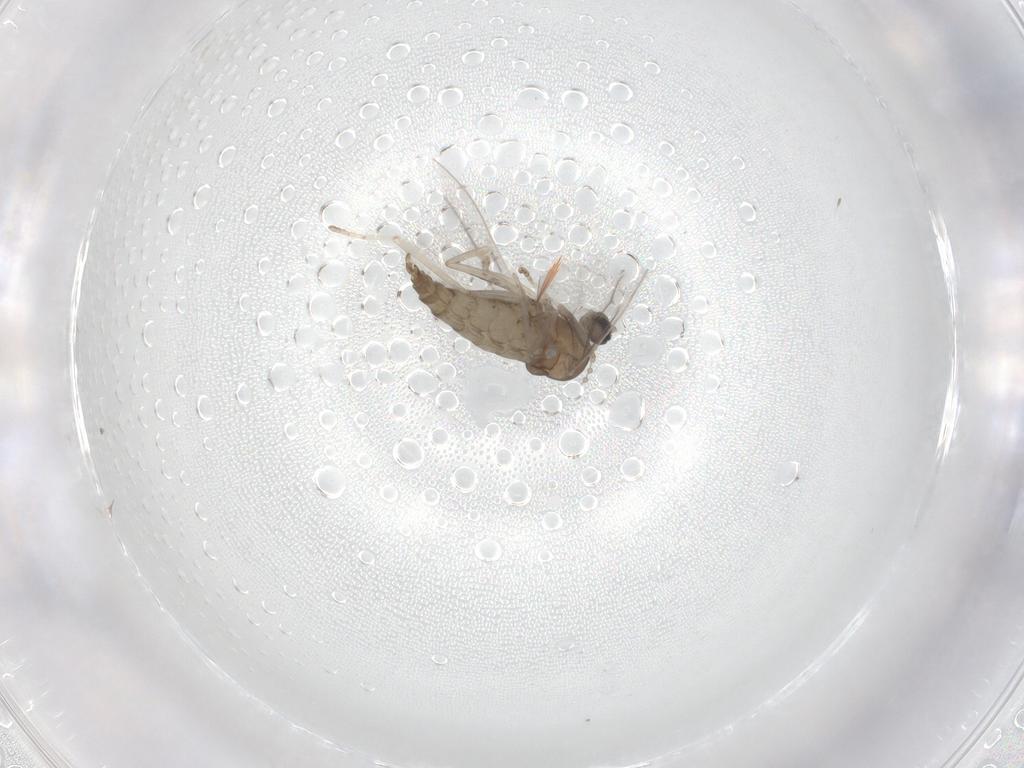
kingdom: Animalia
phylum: Arthropoda
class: Insecta
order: Diptera
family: Cecidomyiidae
